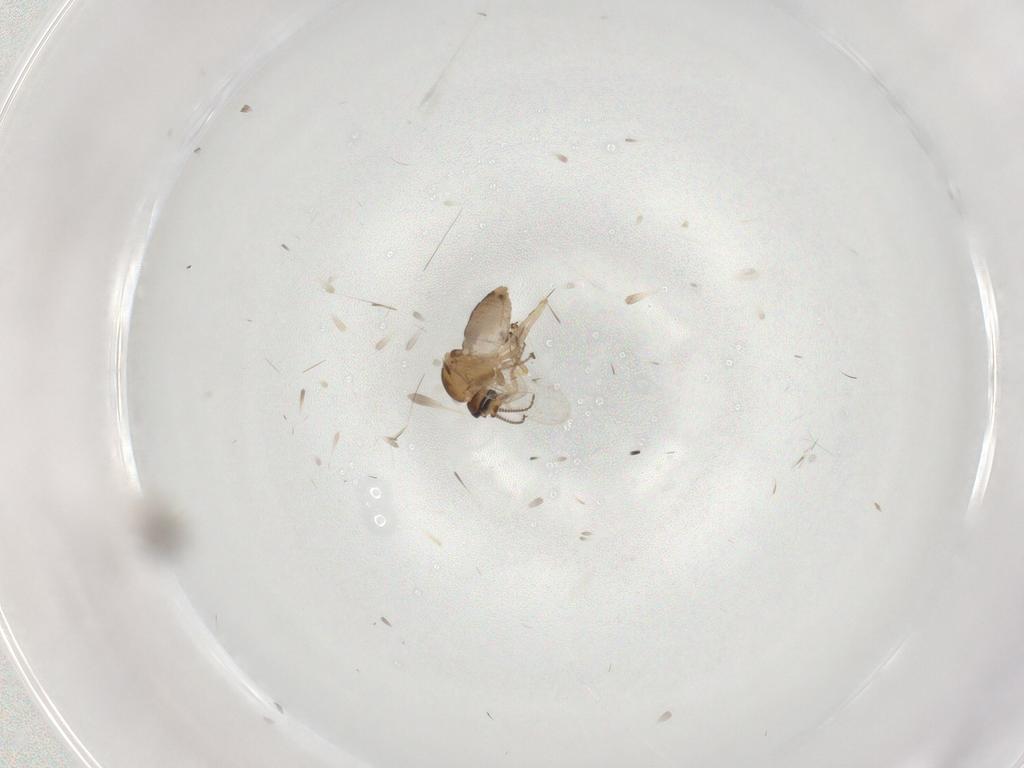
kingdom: Animalia
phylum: Arthropoda
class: Insecta
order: Diptera
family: Ceratopogonidae
